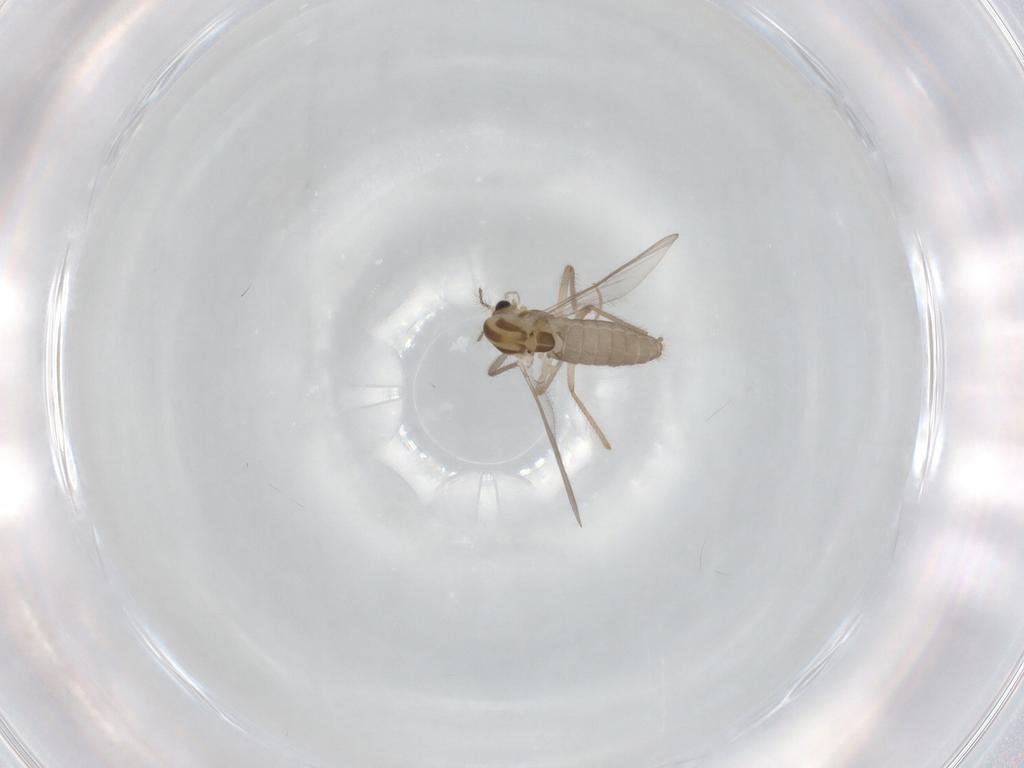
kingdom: Animalia
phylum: Arthropoda
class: Insecta
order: Diptera
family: Chironomidae
